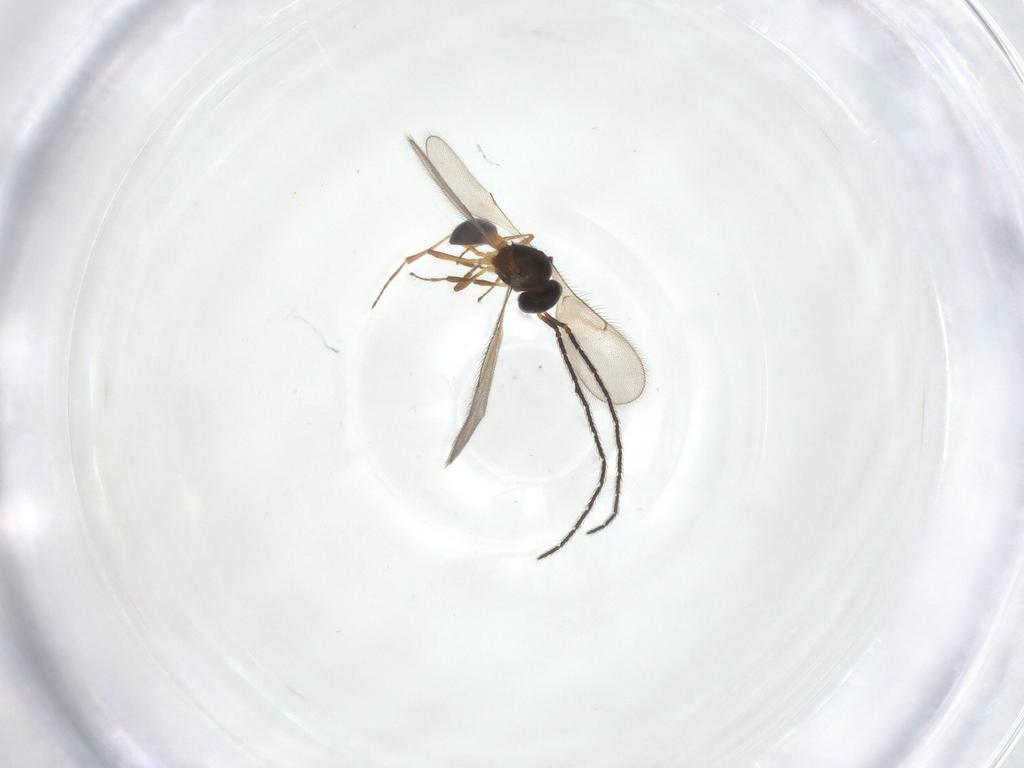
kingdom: Animalia
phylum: Arthropoda
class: Insecta
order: Hymenoptera
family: Scelionidae
